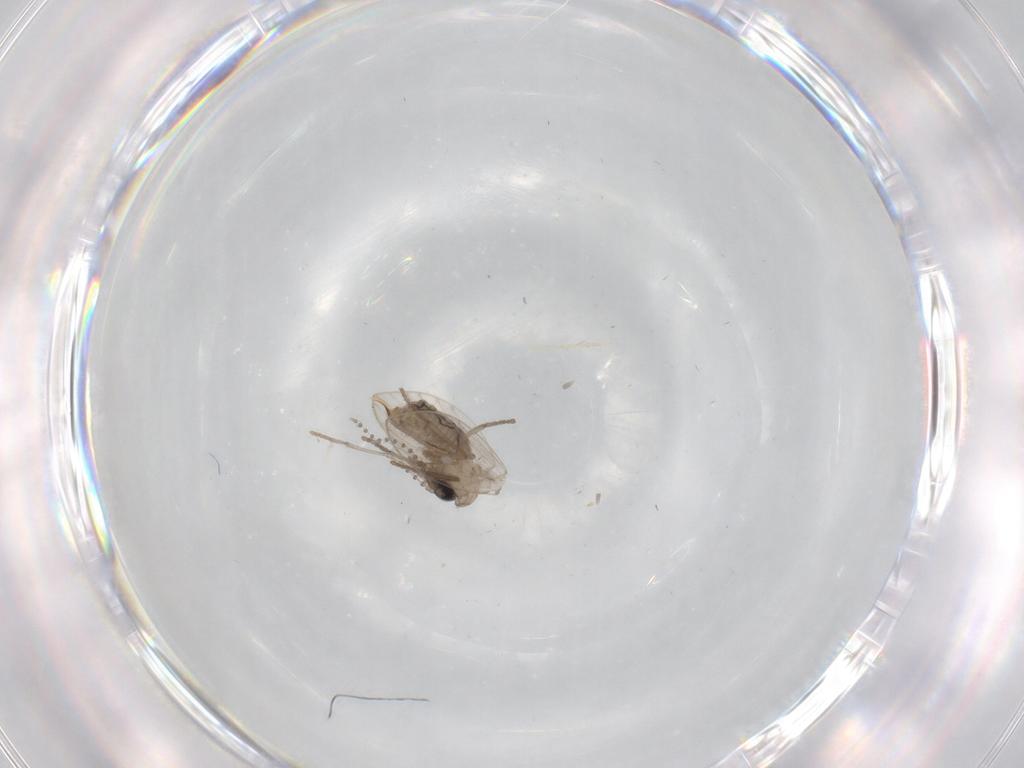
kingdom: Animalia
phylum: Arthropoda
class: Insecta
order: Diptera
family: Psychodidae
